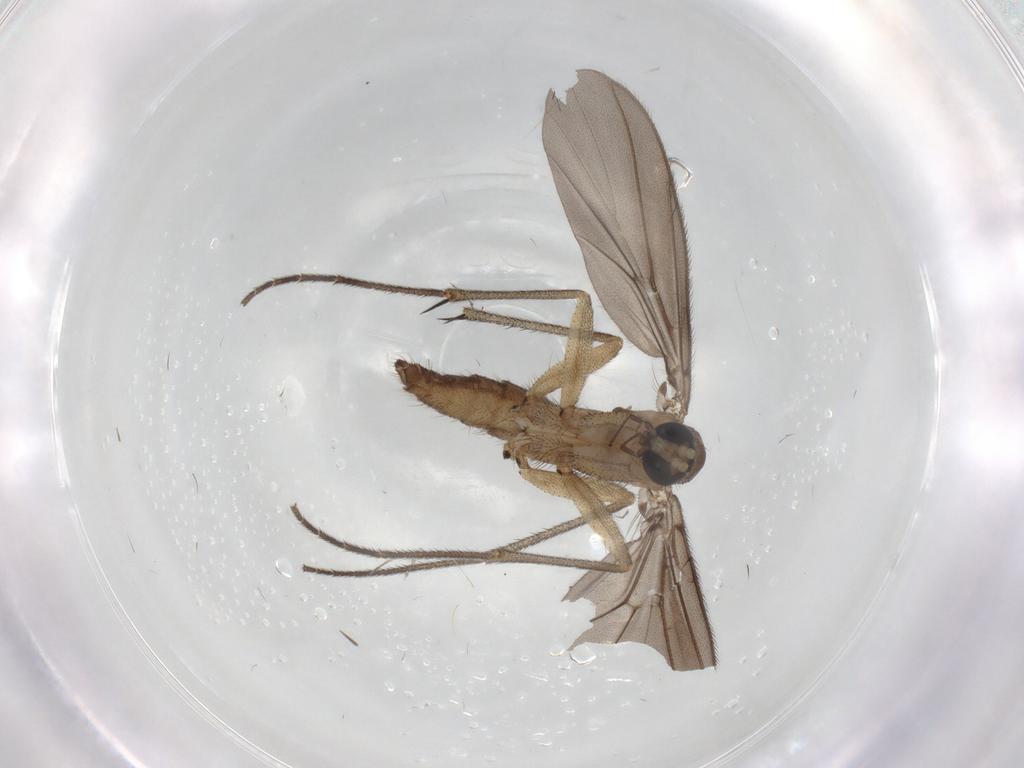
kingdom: Animalia
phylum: Arthropoda
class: Insecta
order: Diptera
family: Cecidomyiidae
